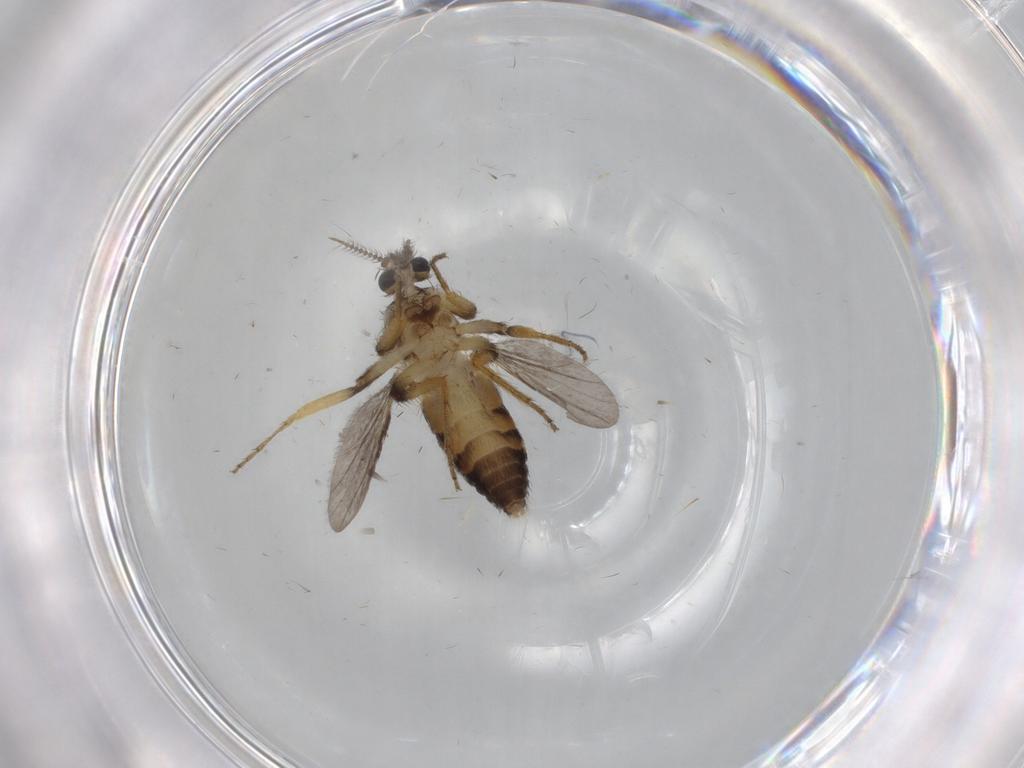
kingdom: Animalia
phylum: Arthropoda
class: Insecta
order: Diptera
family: Ceratopogonidae
